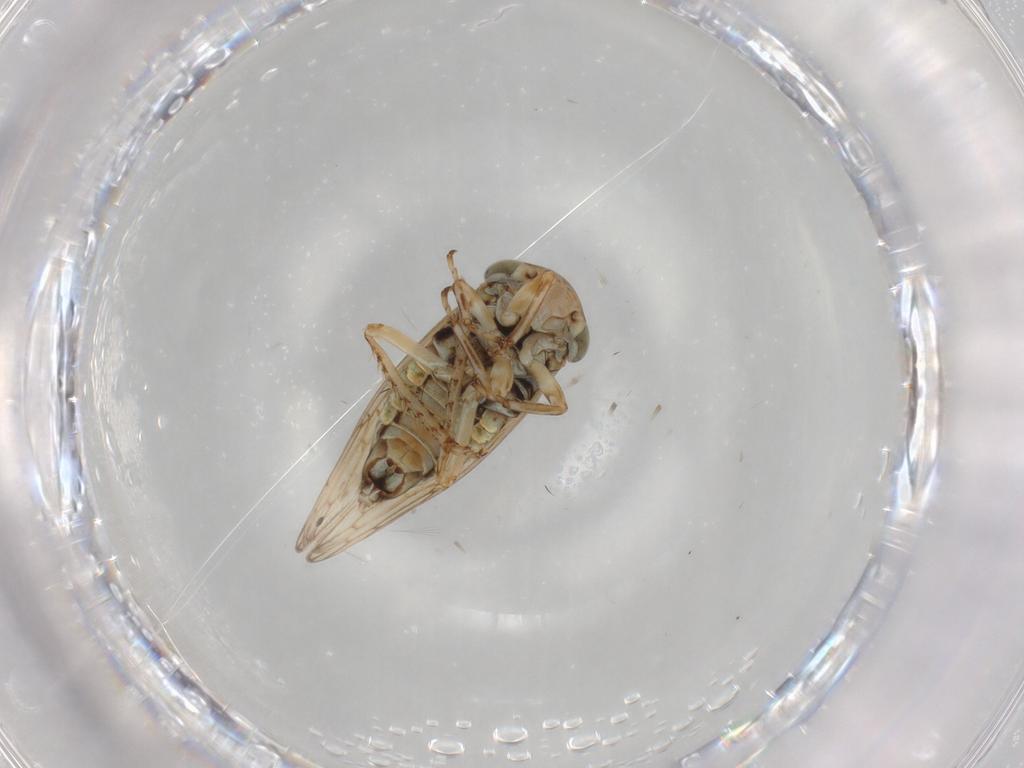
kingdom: Animalia
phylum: Arthropoda
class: Insecta
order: Hemiptera
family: Cicadellidae
